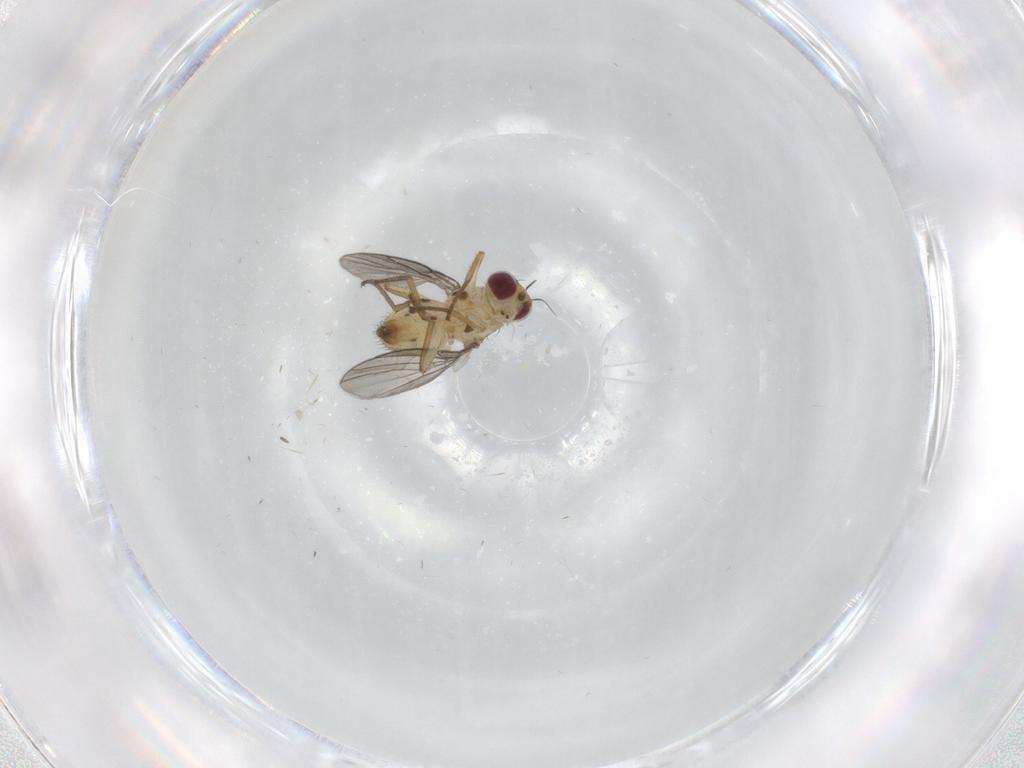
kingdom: Animalia
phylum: Arthropoda
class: Insecta
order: Diptera
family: Agromyzidae
